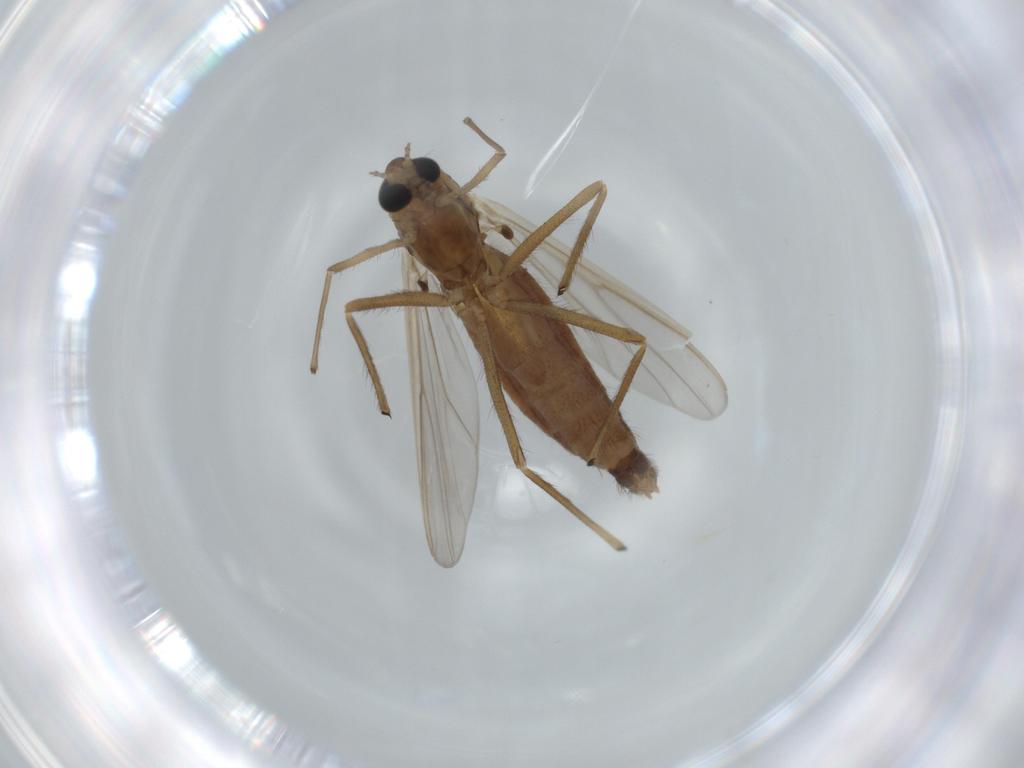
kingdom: Animalia
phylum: Arthropoda
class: Insecta
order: Diptera
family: Chironomidae
